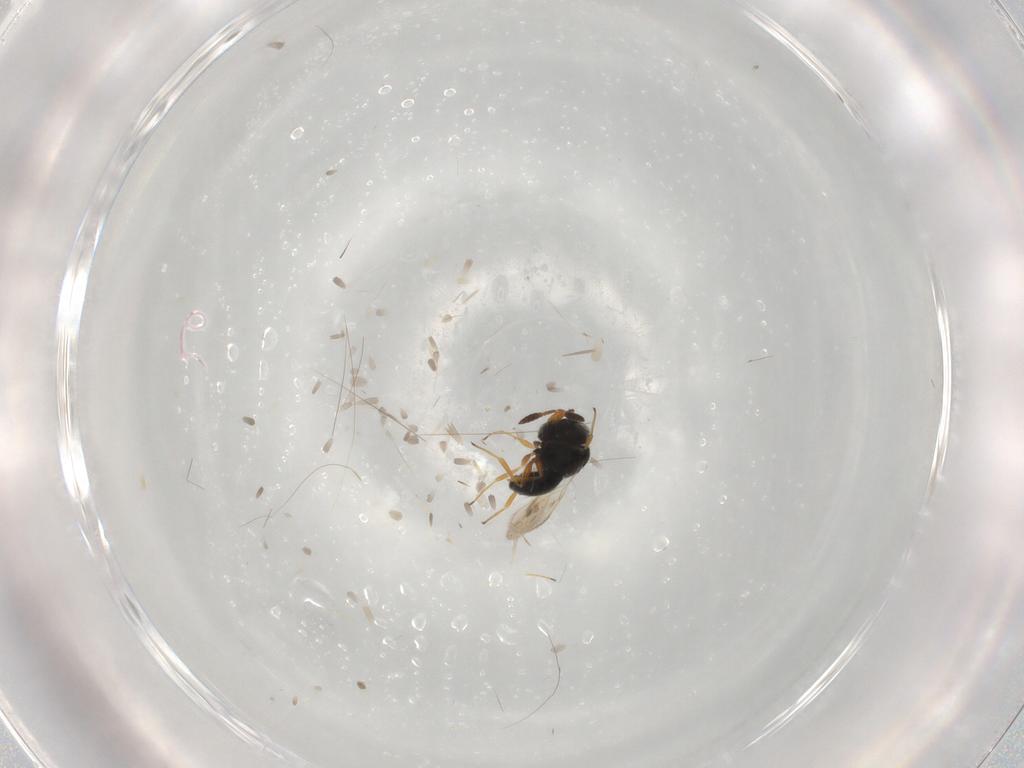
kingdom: Animalia
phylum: Arthropoda
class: Insecta
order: Hymenoptera
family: Scelionidae
